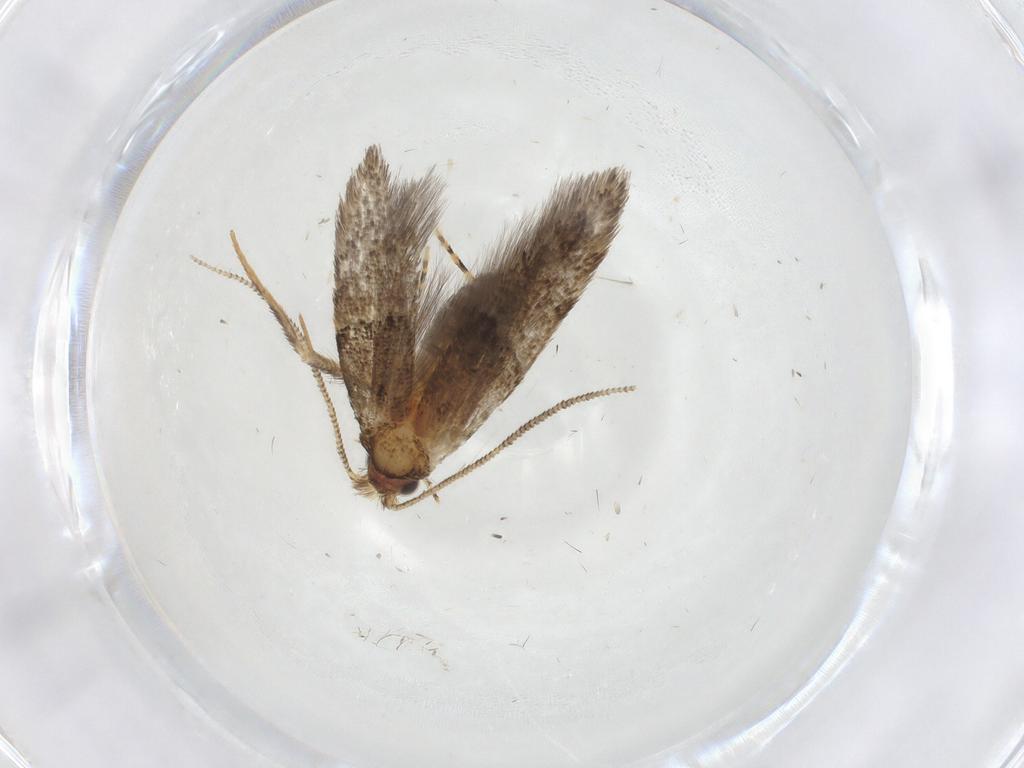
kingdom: Animalia
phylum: Arthropoda
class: Insecta
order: Lepidoptera
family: Tineidae
